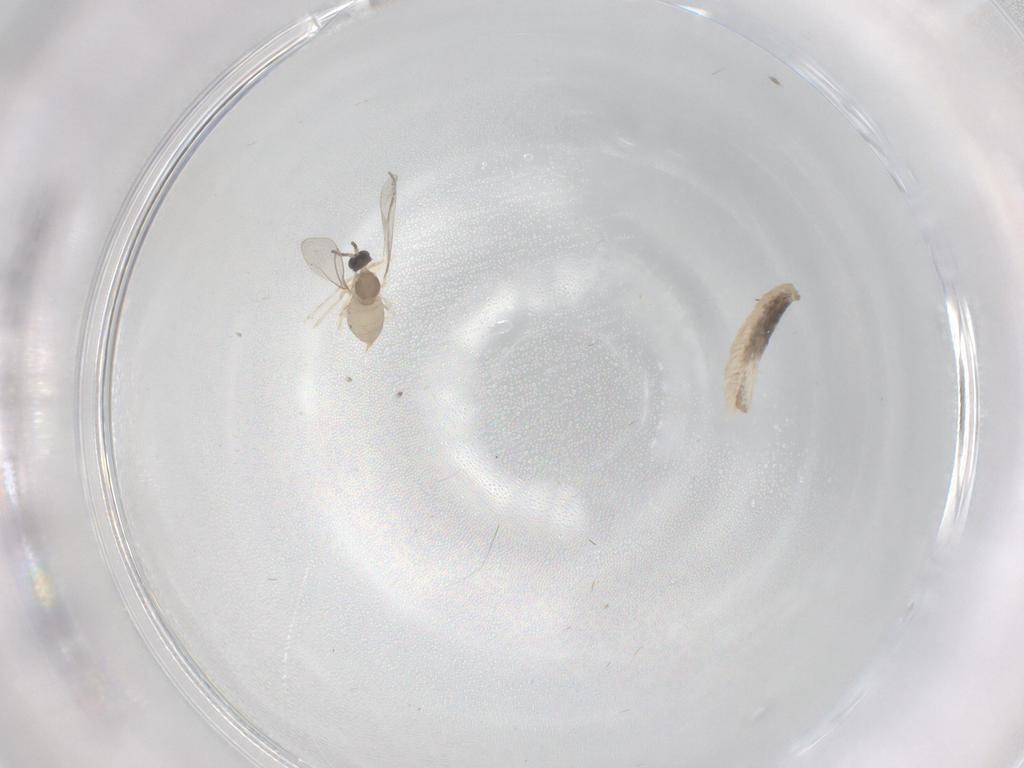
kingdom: Animalia
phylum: Arthropoda
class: Insecta
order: Diptera
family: Cecidomyiidae
